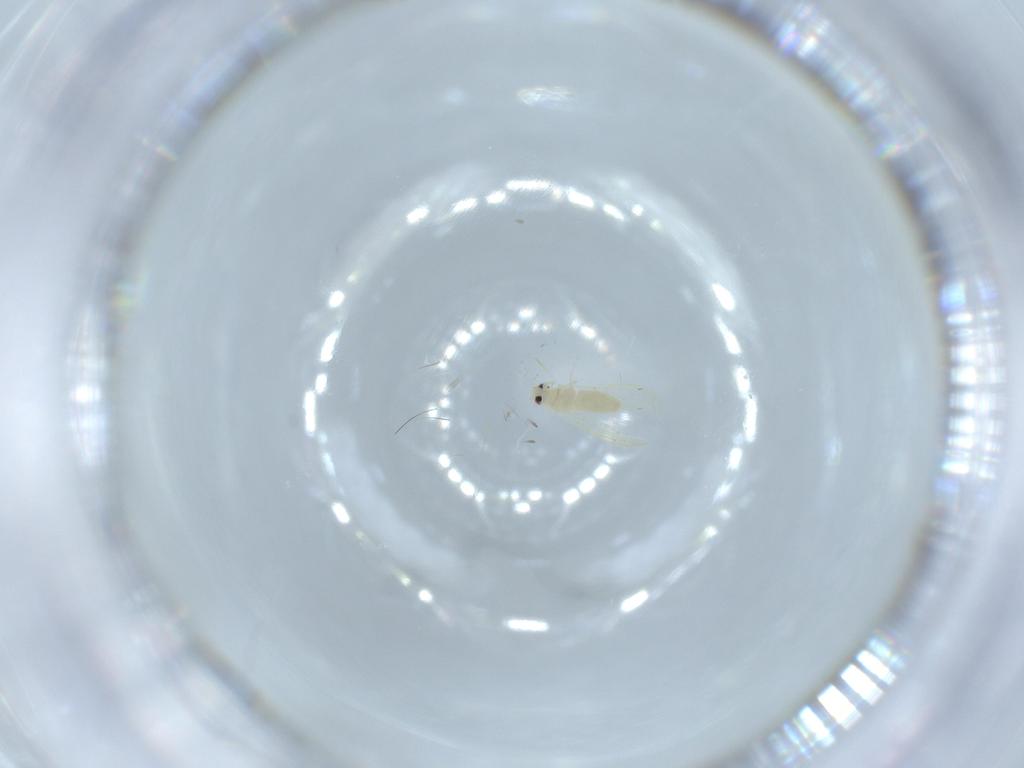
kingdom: Animalia
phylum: Arthropoda
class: Insecta
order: Hemiptera
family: Cicadellidae
